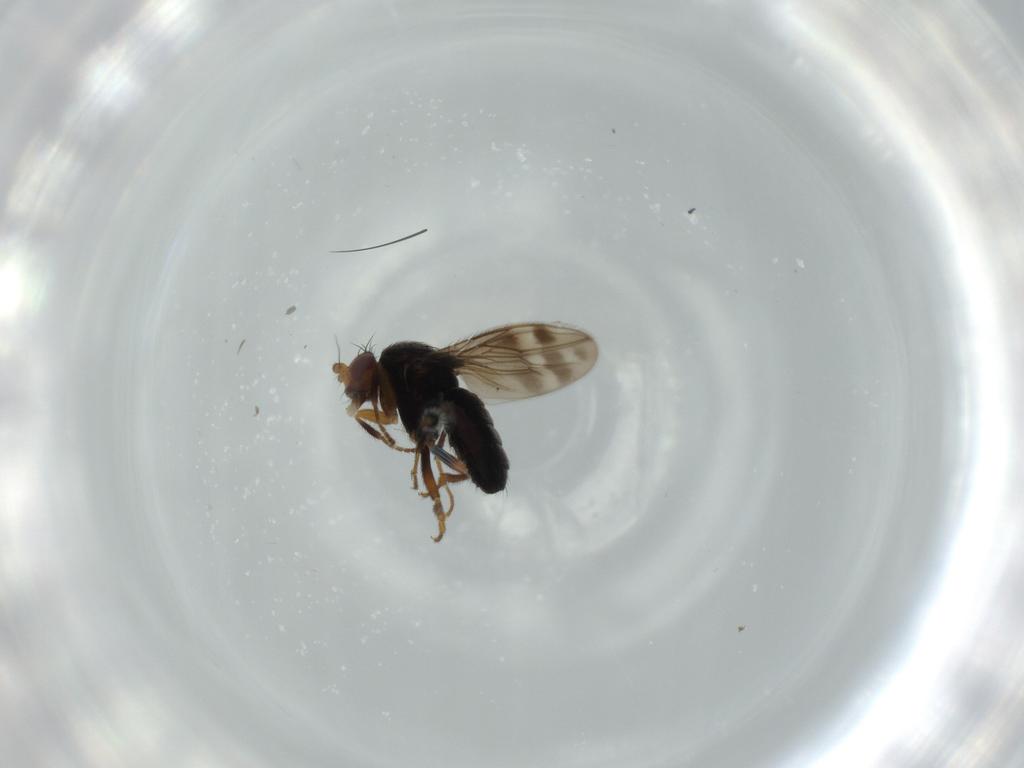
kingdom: Animalia
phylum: Arthropoda
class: Insecta
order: Diptera
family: Sphaeroceridae
